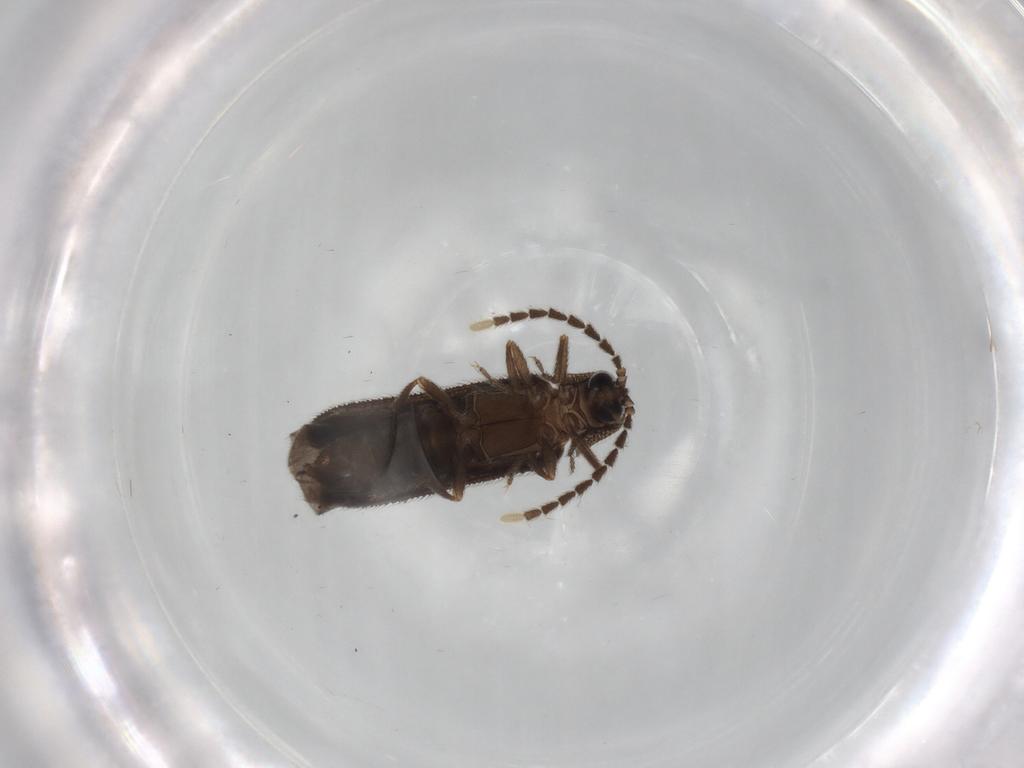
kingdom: Animalia
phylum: Arthropoda
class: Insecta
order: Coleoptera
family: Lycidae
